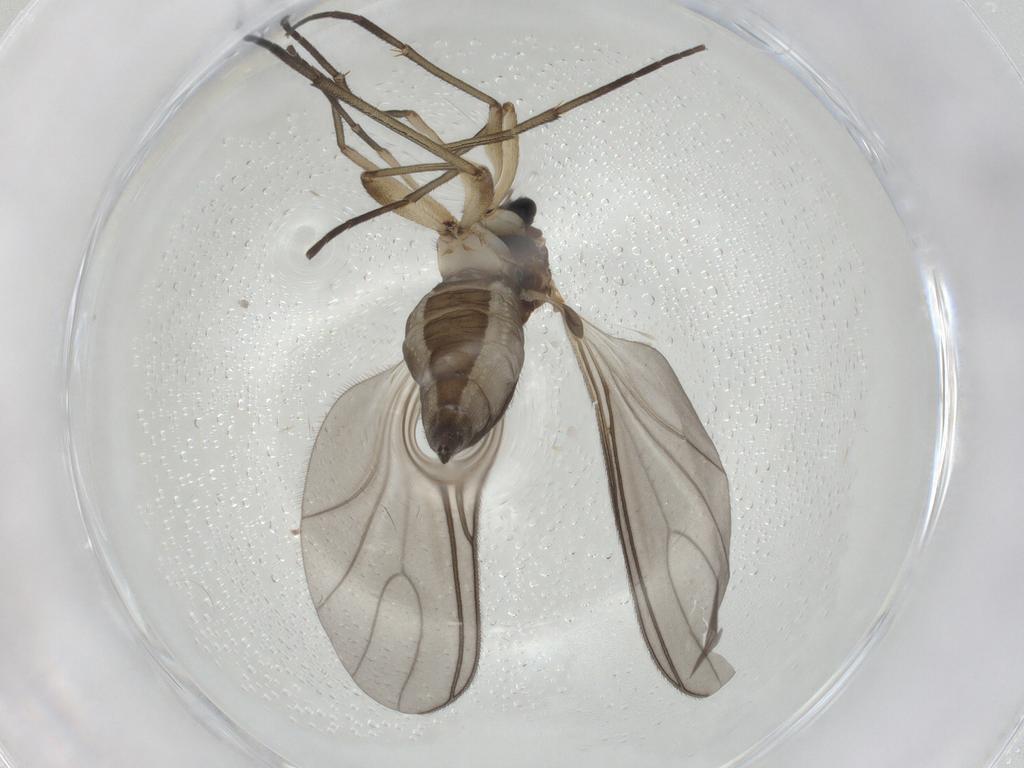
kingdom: Animalia
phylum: Arthropoda
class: Insecta
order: Diptera
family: Sciaridae
